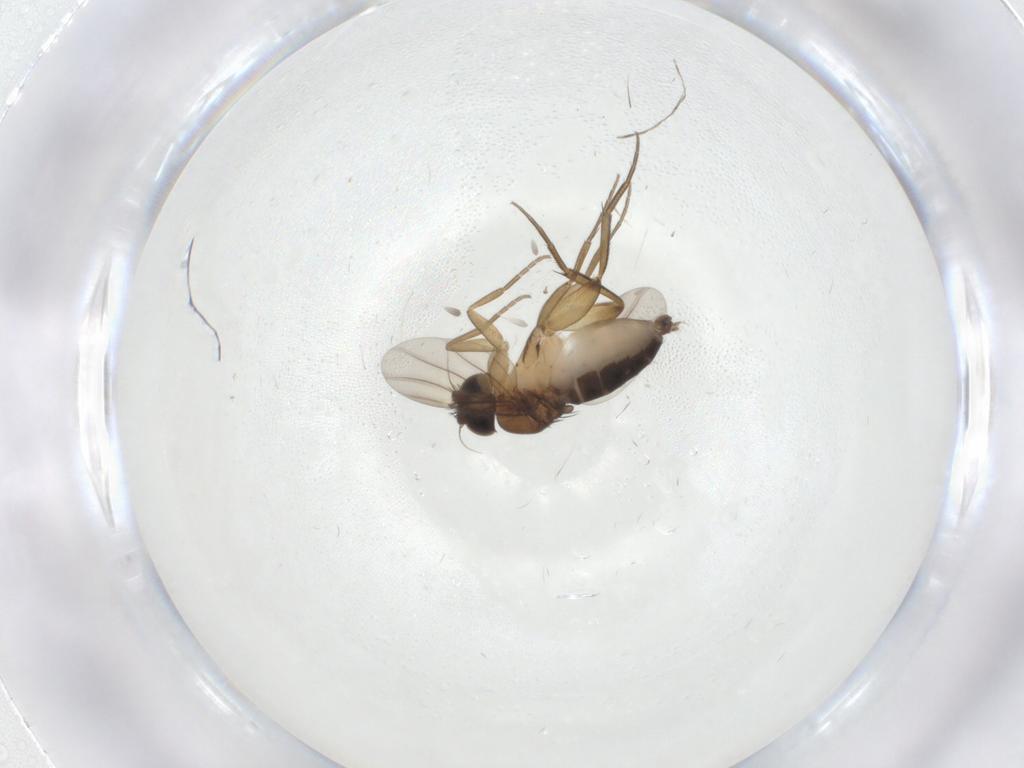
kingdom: Animalia
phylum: Arthropoda
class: Insecta
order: Diptera
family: Phoridae
